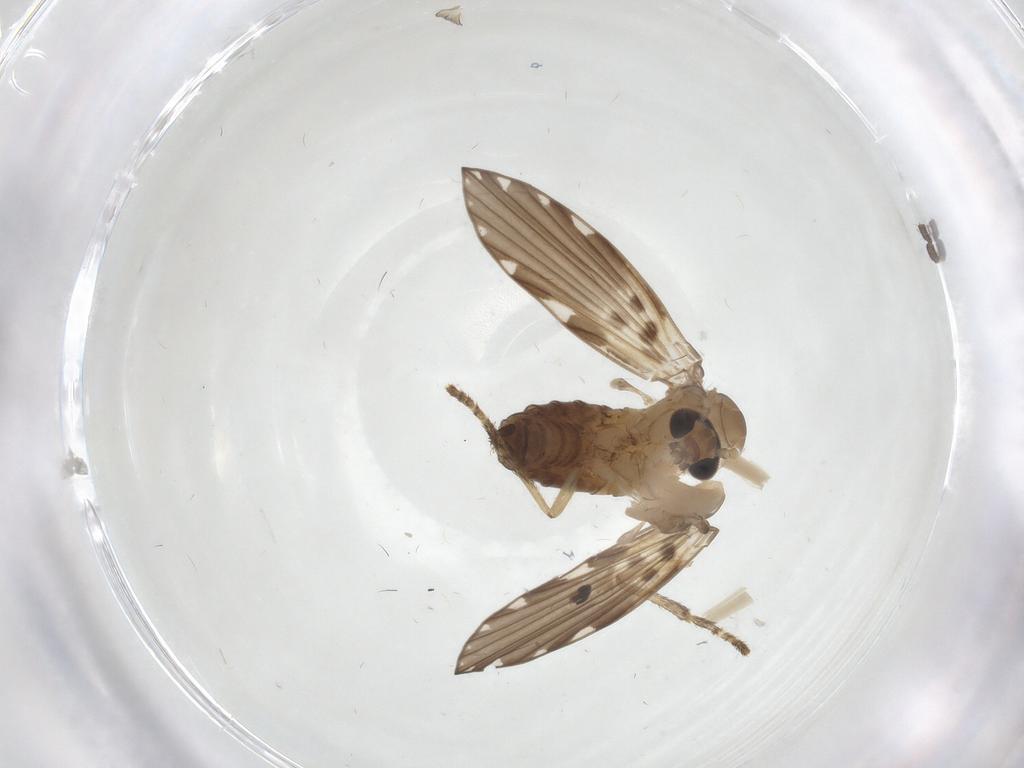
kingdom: Animalia
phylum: Arthropoda
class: Insecta
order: Diptera
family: Psychodidae
